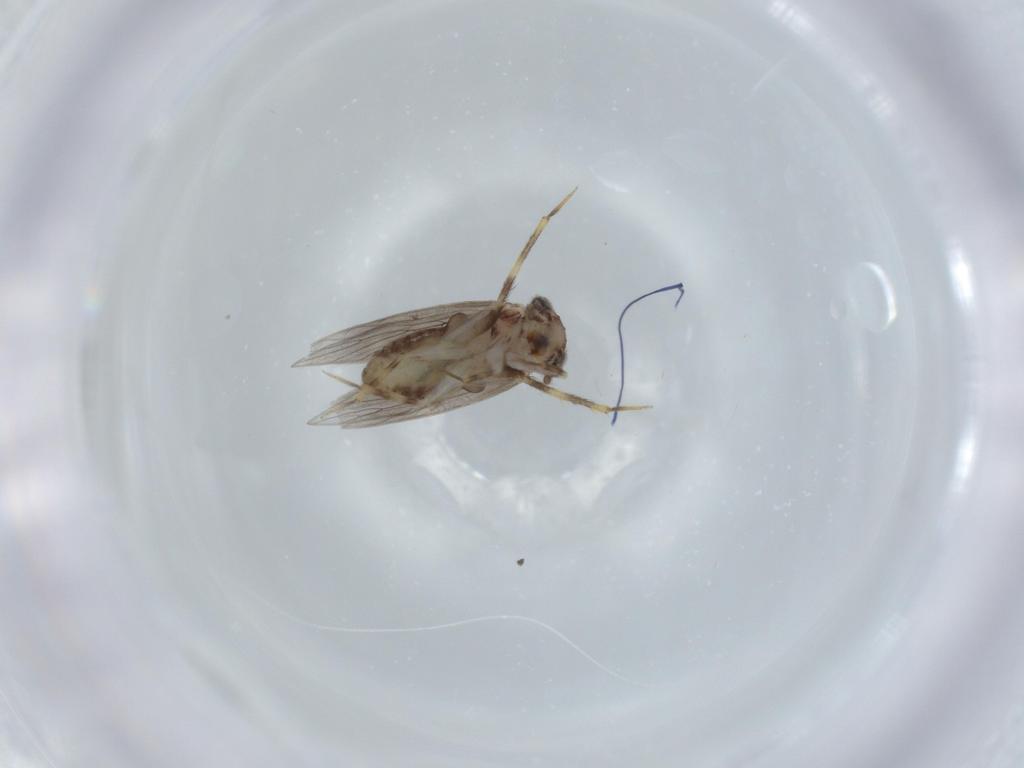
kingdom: Animalia
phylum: Arthropoda
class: Insecta
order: Psocodea
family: Lepidopsocidae
